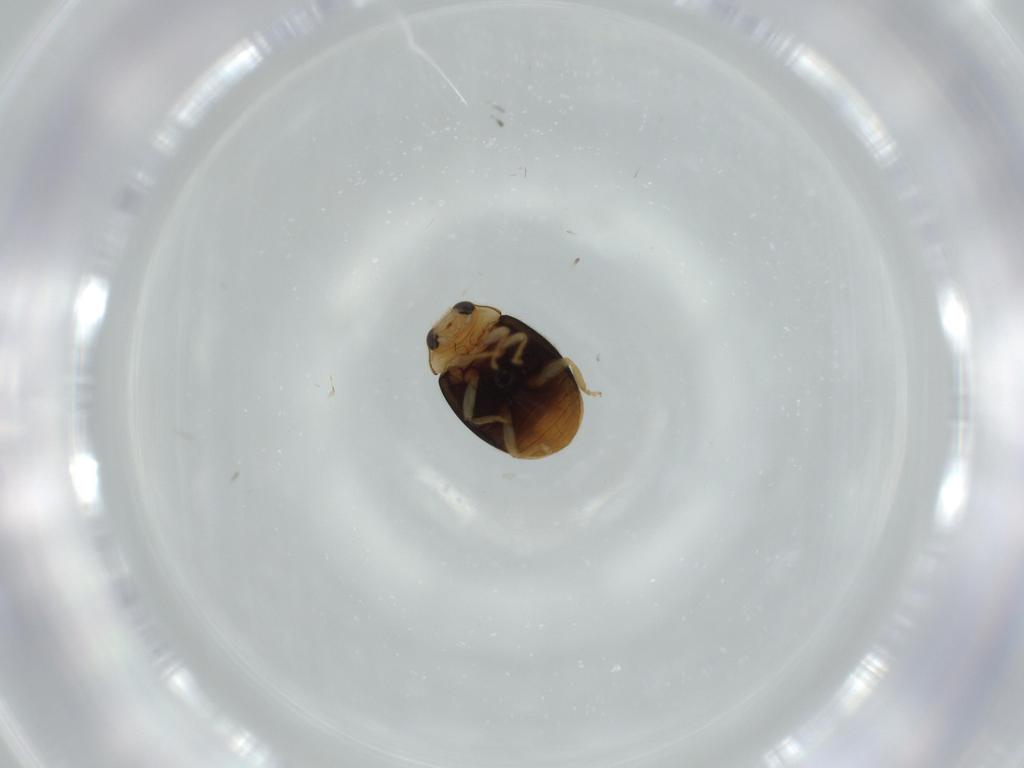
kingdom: Animalia
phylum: Arthropoda
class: Insecta
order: Coleoptera
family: Coccinellidae
